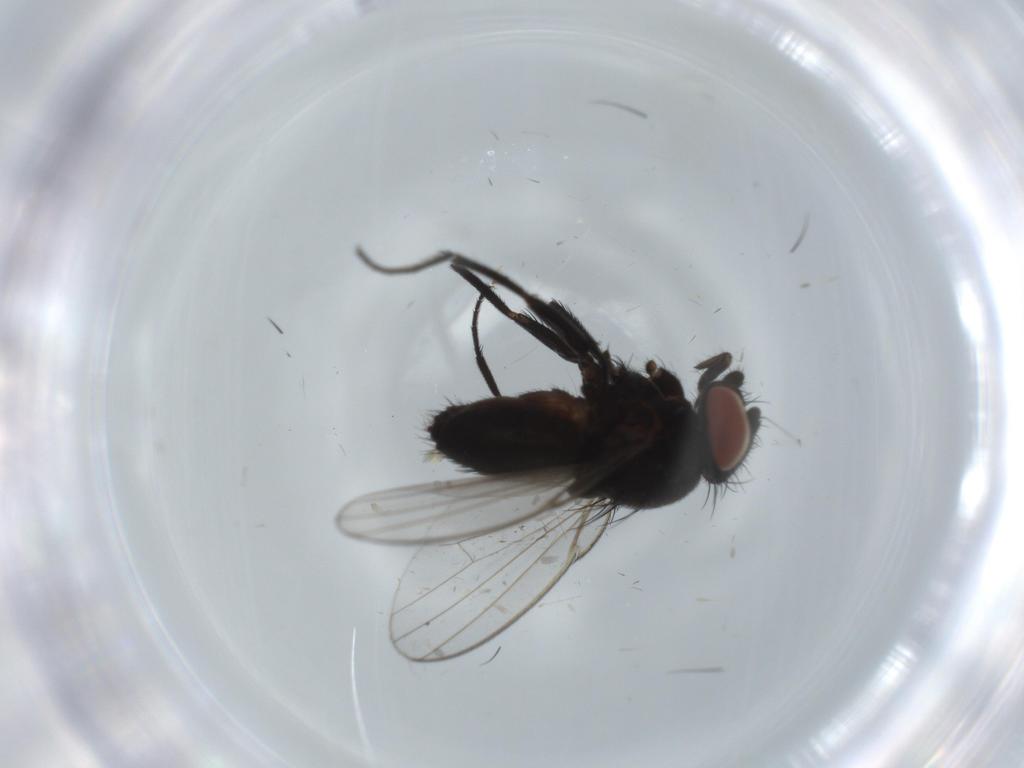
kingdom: Animalia
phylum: Arthropoda
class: Insecta
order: Diptera
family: Milichiidae
